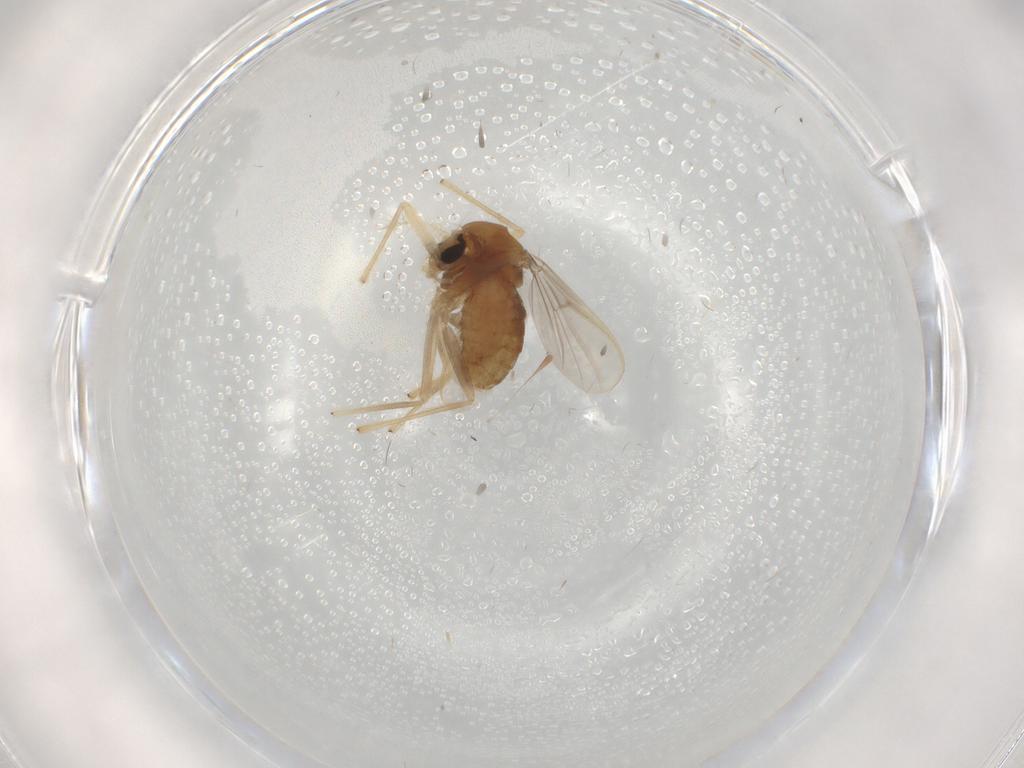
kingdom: Animalia
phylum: Arthropoda
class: Insecta
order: Diptera
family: Chironomidae
